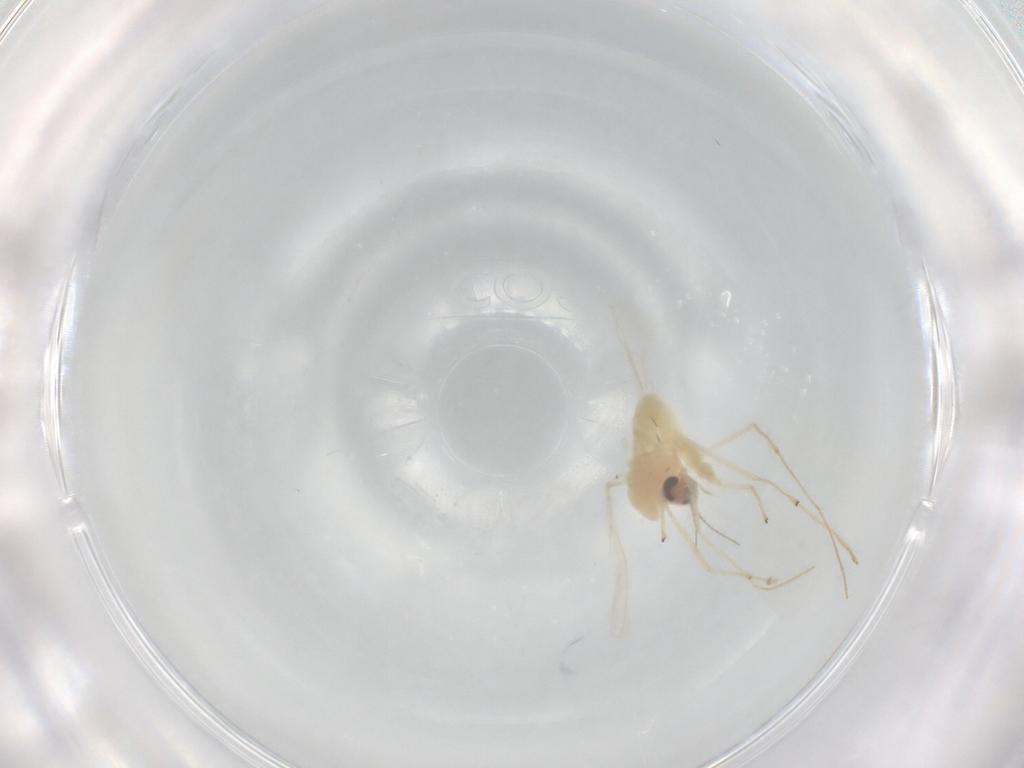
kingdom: Animalia
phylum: Arthropoda
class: Insecta
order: Diptera
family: Chironomidae
